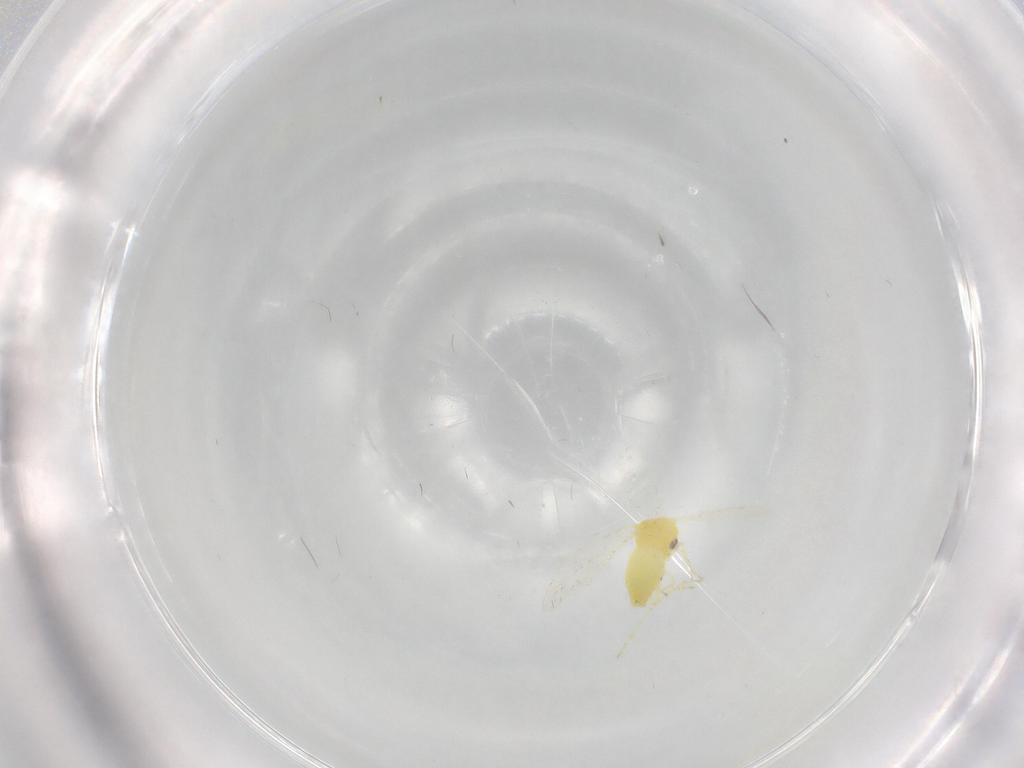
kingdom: Animalia
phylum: Arthropoda
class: Insecta
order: Hemiptera
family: Aleyrodidae
